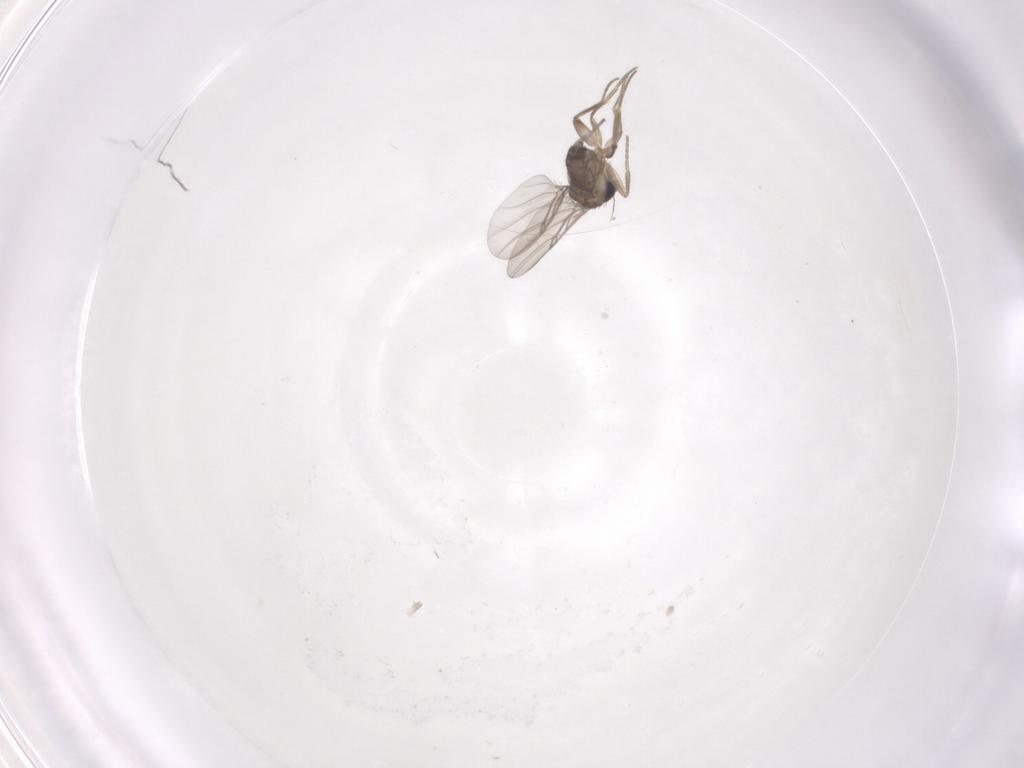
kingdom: Animalia
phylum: Arthropoda
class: Insecta
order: Diptera
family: Phoridae
